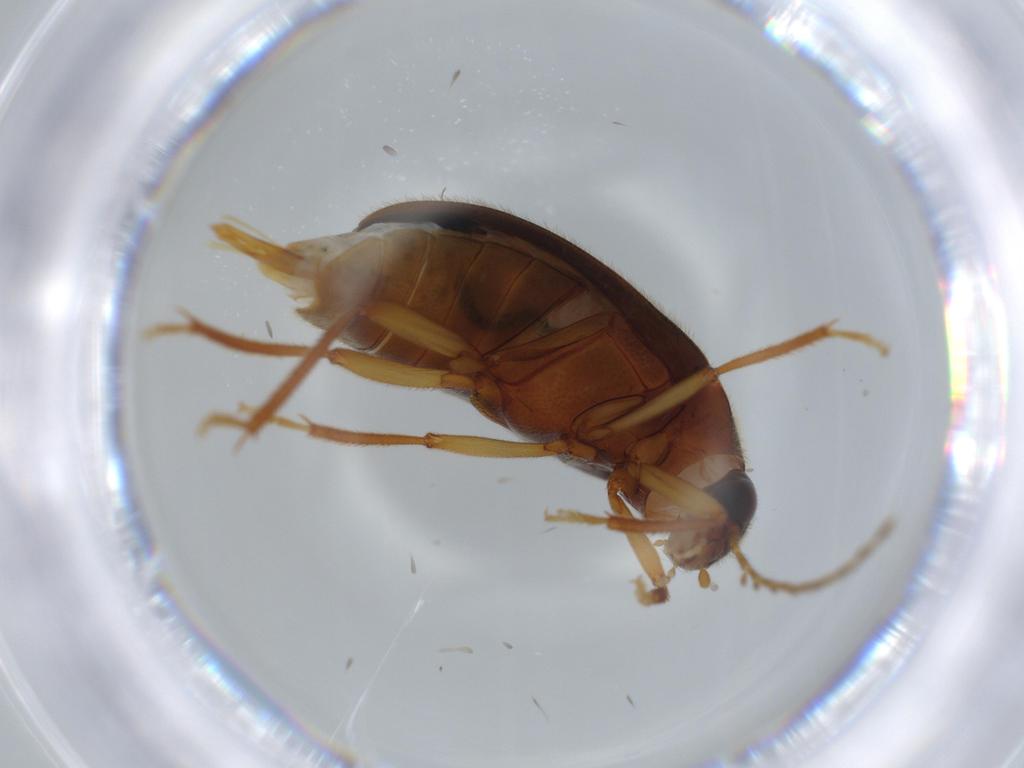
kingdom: Animalia
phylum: Arthropoda
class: Insecta
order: Coleoptera
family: Ptilodactylidae
